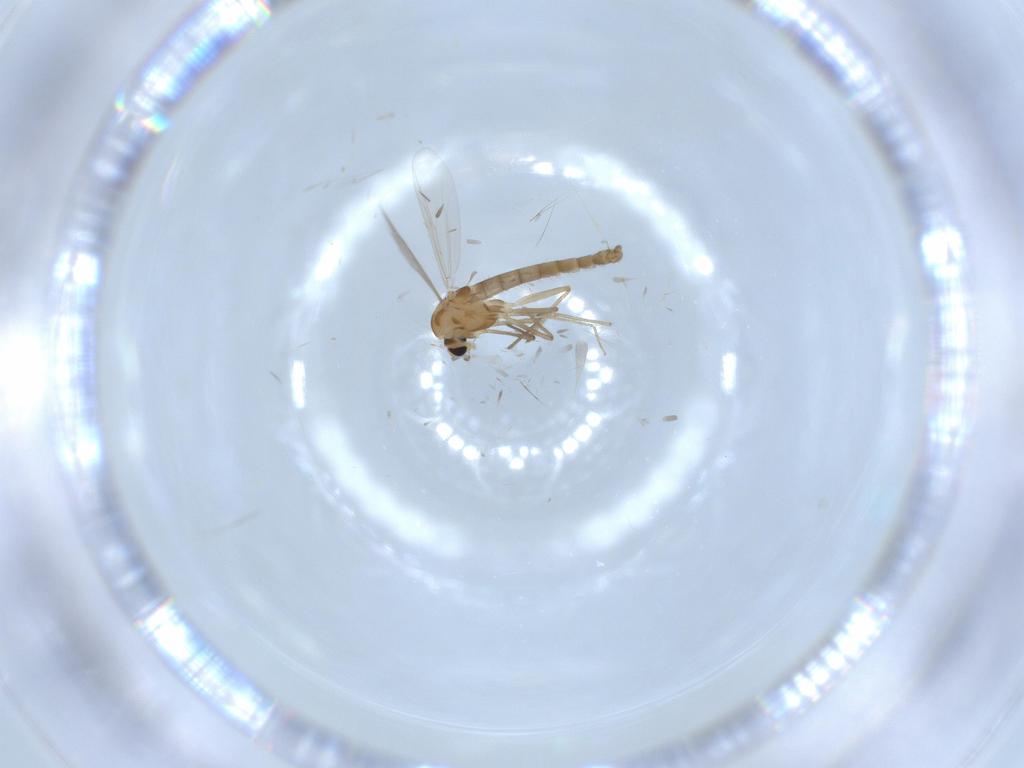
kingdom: Animalia
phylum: Arthropoda
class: Insecta
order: Diptera
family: Chironomidae
